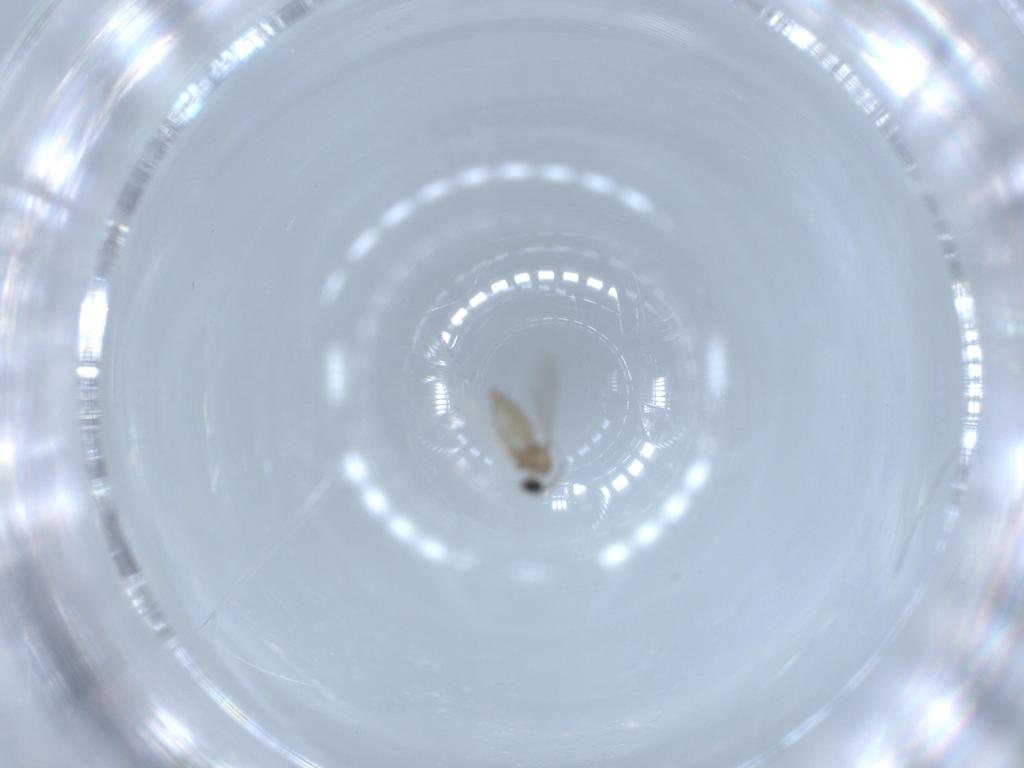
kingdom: Animalia
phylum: Arthropoda
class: Insecta
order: Diptera
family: Cecidomyiidae
